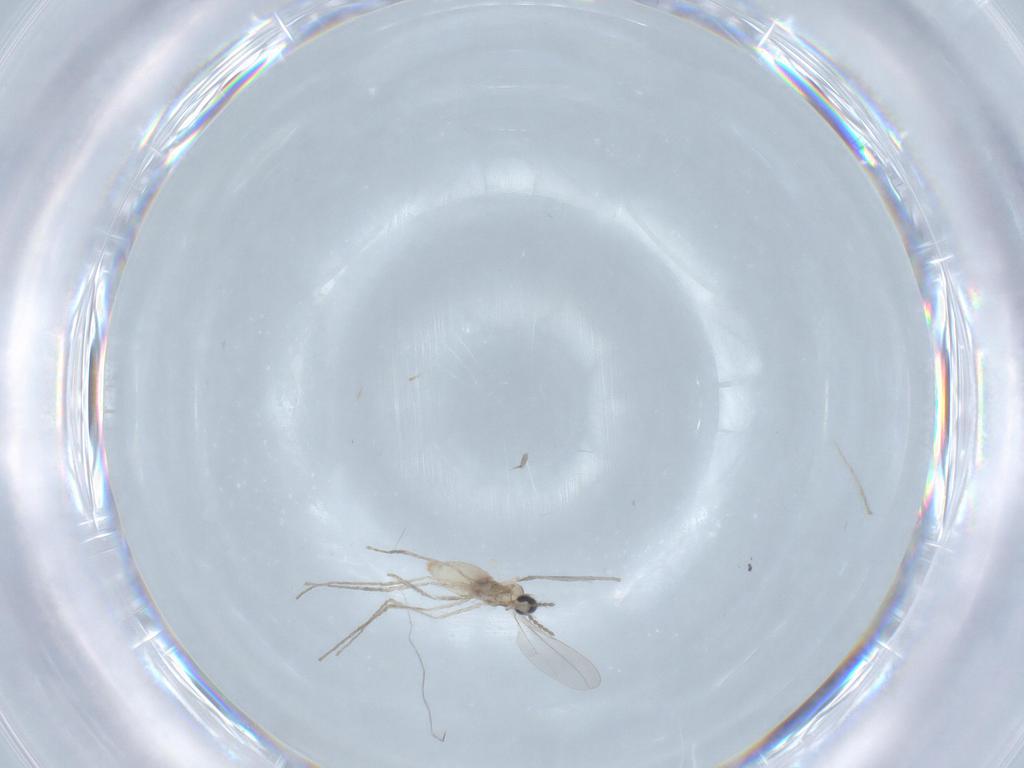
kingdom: Animalia
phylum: Arthropoda
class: Insecta
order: Diptera
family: Cecidomyiidae
